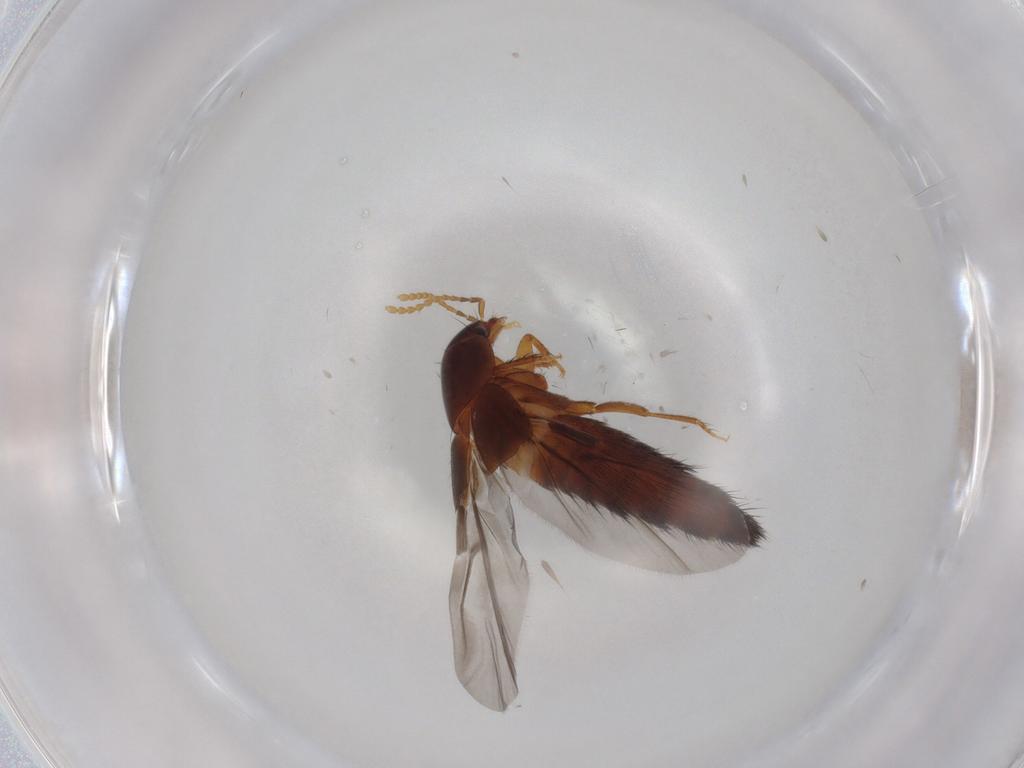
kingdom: Animalia
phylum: Arthropoda
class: Insecta
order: Coleoptera
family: Staphylinidae
